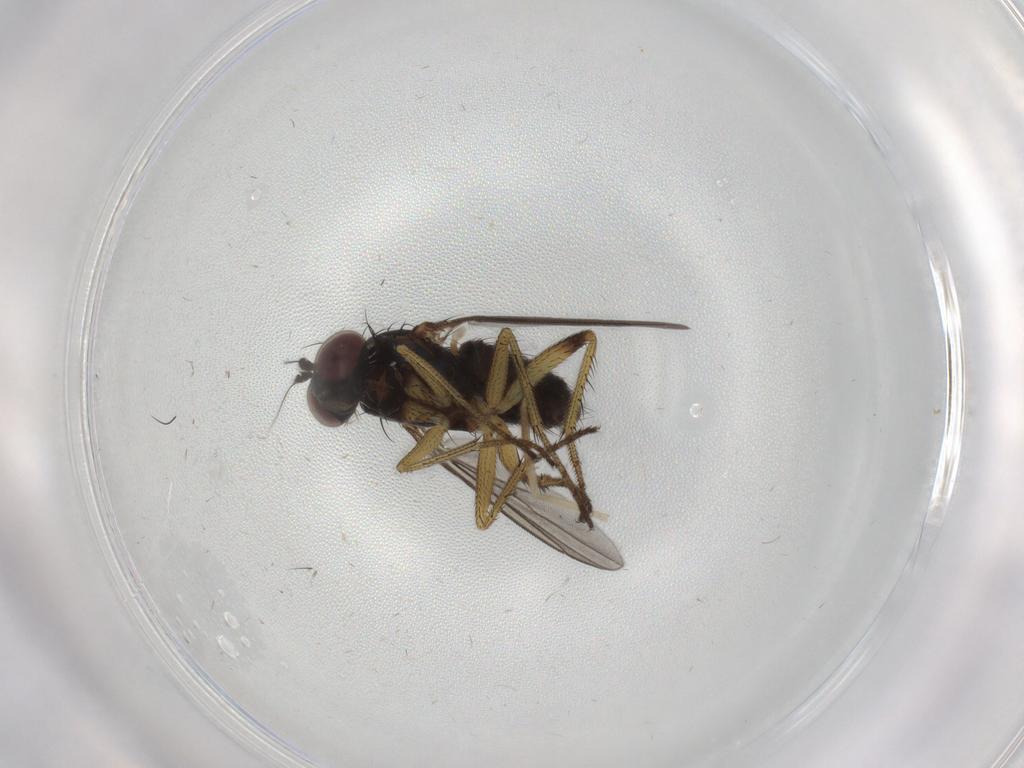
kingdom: Animalia
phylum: Arthropoda
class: Insecta
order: Diptera
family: Dolichopodidae
